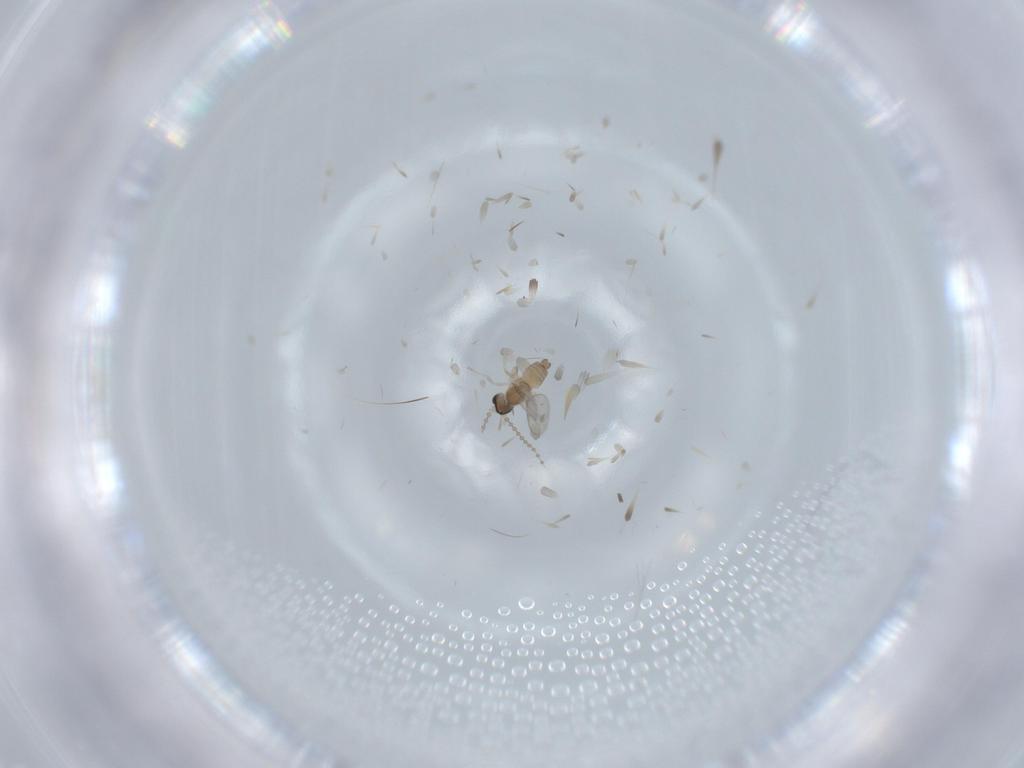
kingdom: Animalia
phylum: Arthropoda
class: Insecta
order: Diptera
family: Cecidomyiidae
